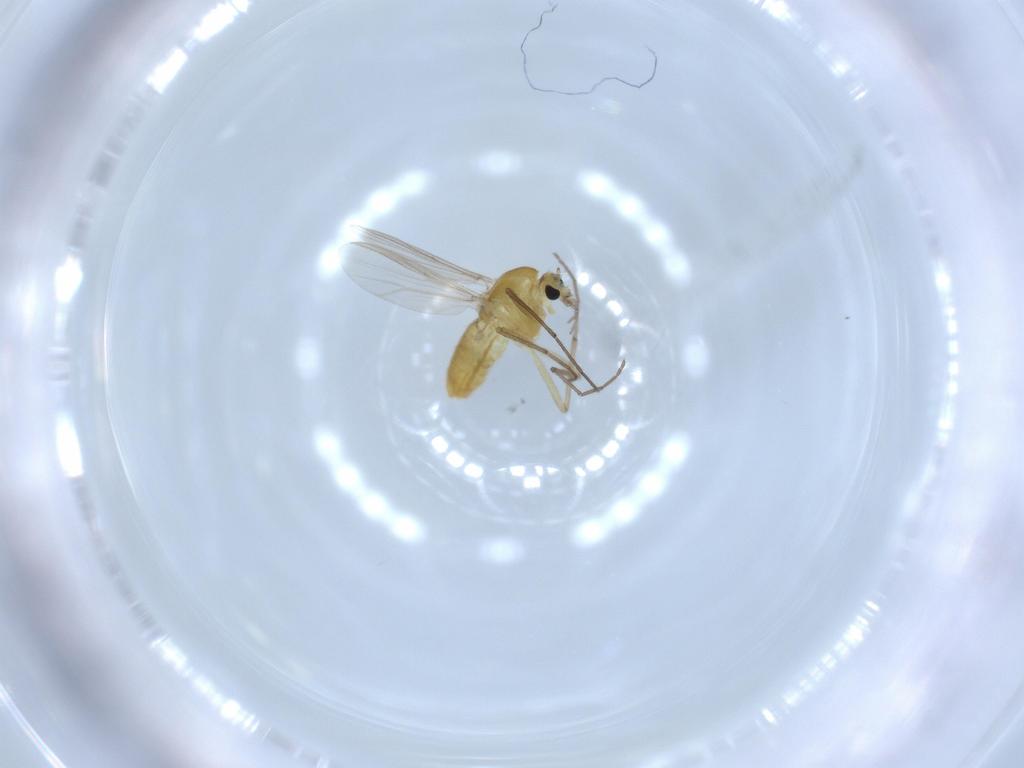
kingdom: Animalia
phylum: Arthropoda
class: Insecta
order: Diptera
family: Chironomidae
